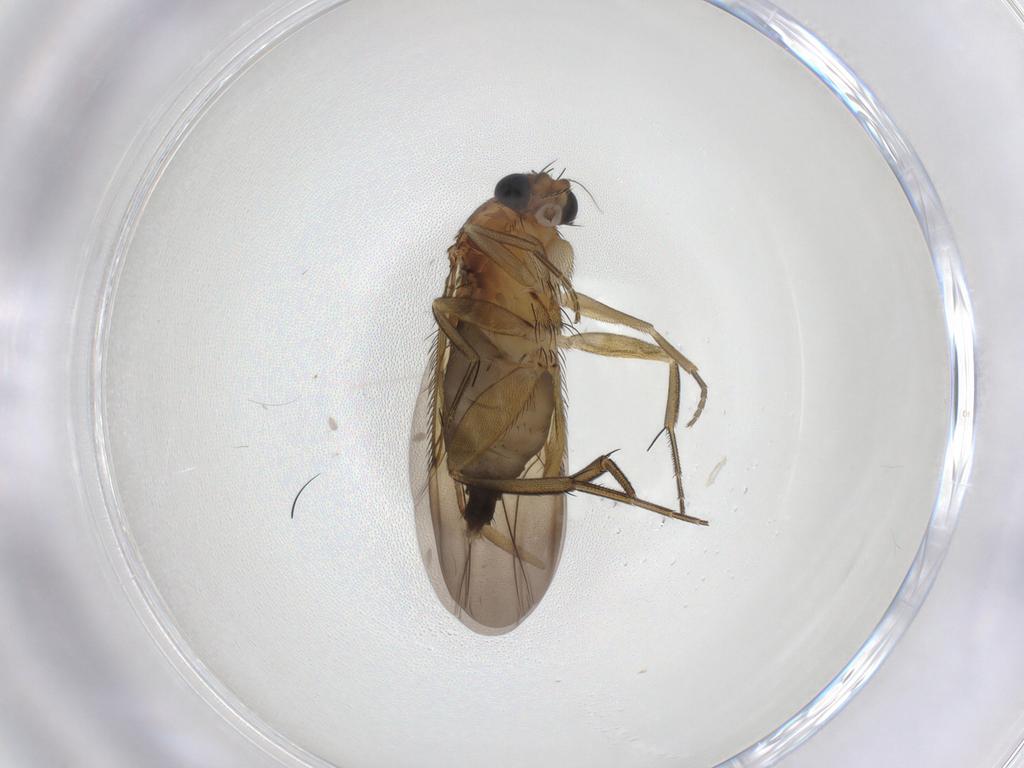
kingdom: Animalia
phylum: Arthropoda
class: Insecta
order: Diptera
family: Phoridae
